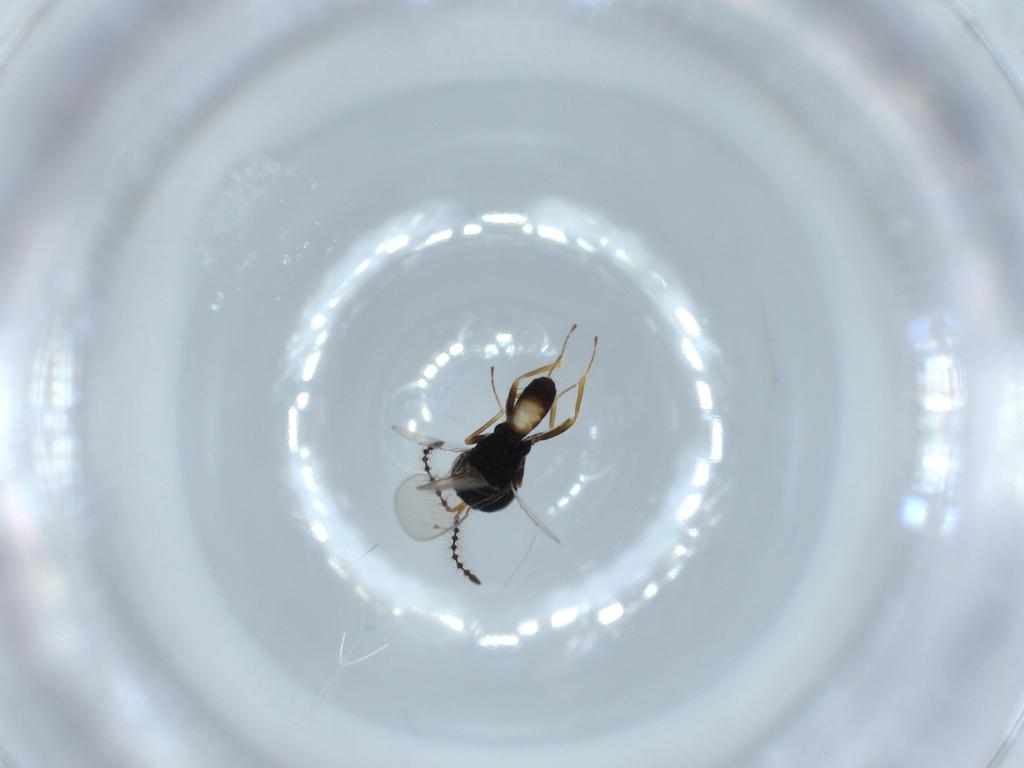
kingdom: Animalia
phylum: Arthropoda
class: Insecta
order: Hymenoptera
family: Pteromalidae
